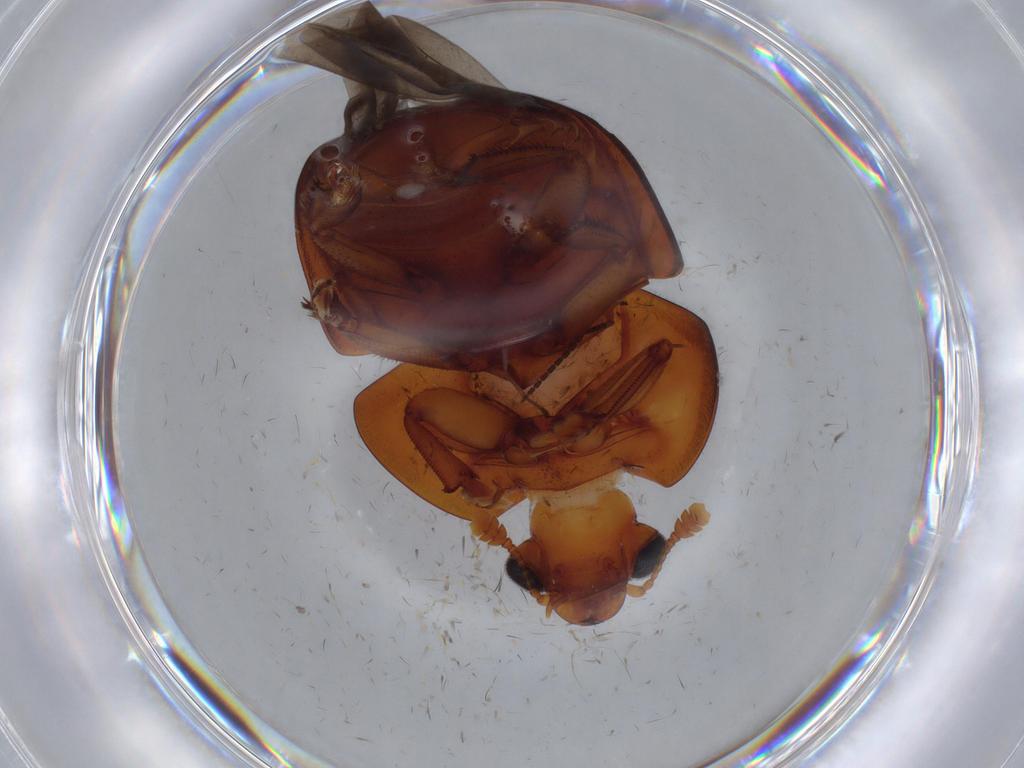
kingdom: Animalia
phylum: Arthropoda
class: Insecta
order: Coleoptera
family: Nitidulidae
